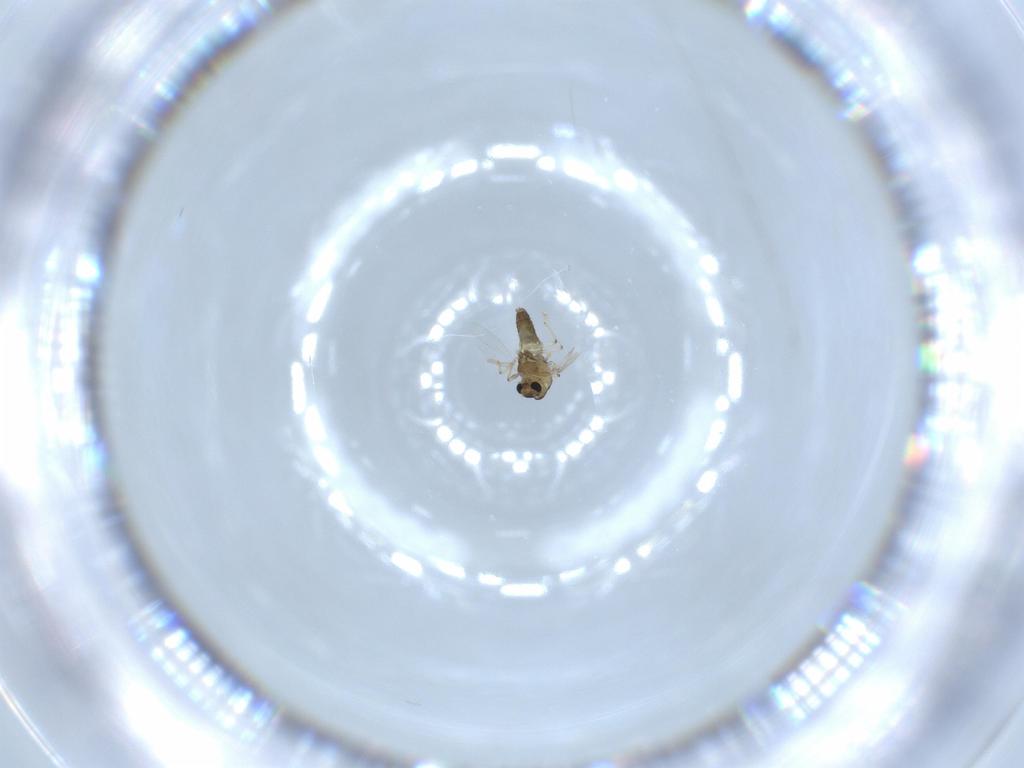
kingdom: Animalia
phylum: Arthropoda
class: Insecta
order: Diptera
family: Chironomidae
